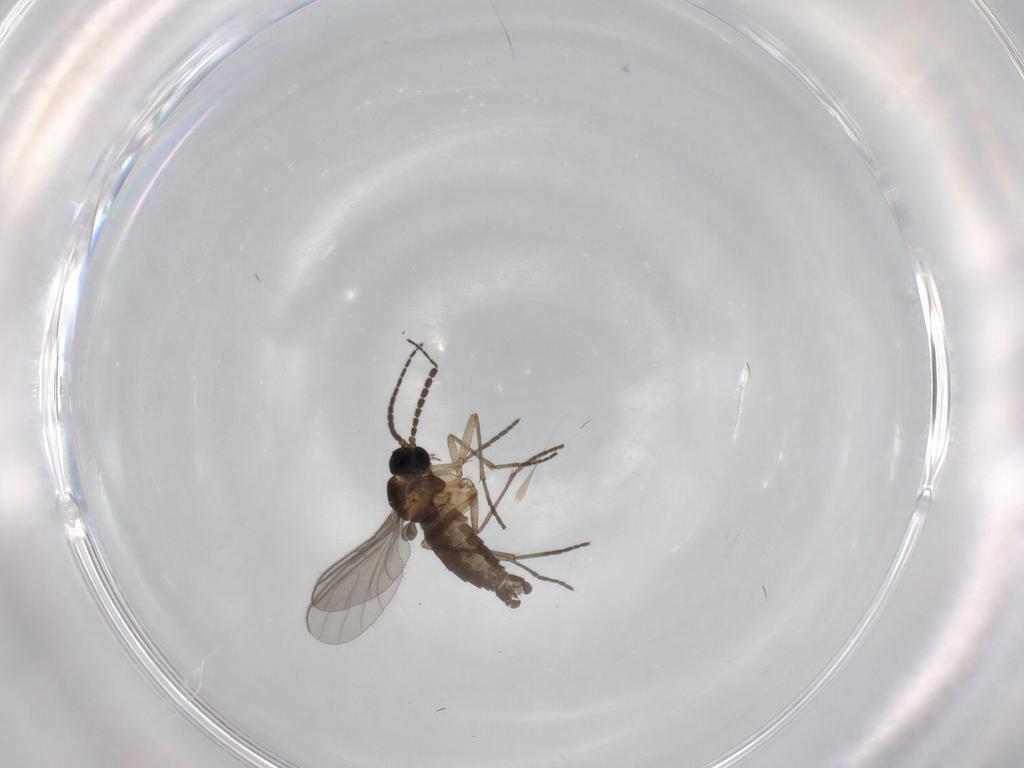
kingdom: Animalia
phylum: Arthropoda
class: Insecta
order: Diptera
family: Sciaridae
